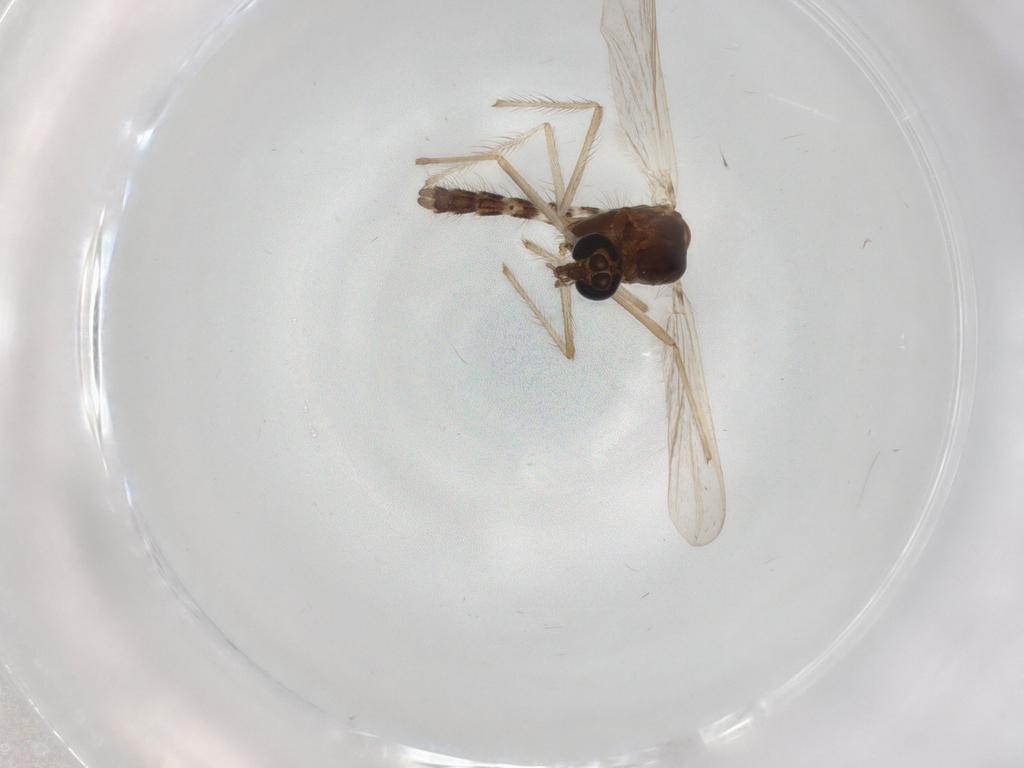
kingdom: Animalia
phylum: Arthropoda
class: Insecta
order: Diptera
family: Chironomidae
